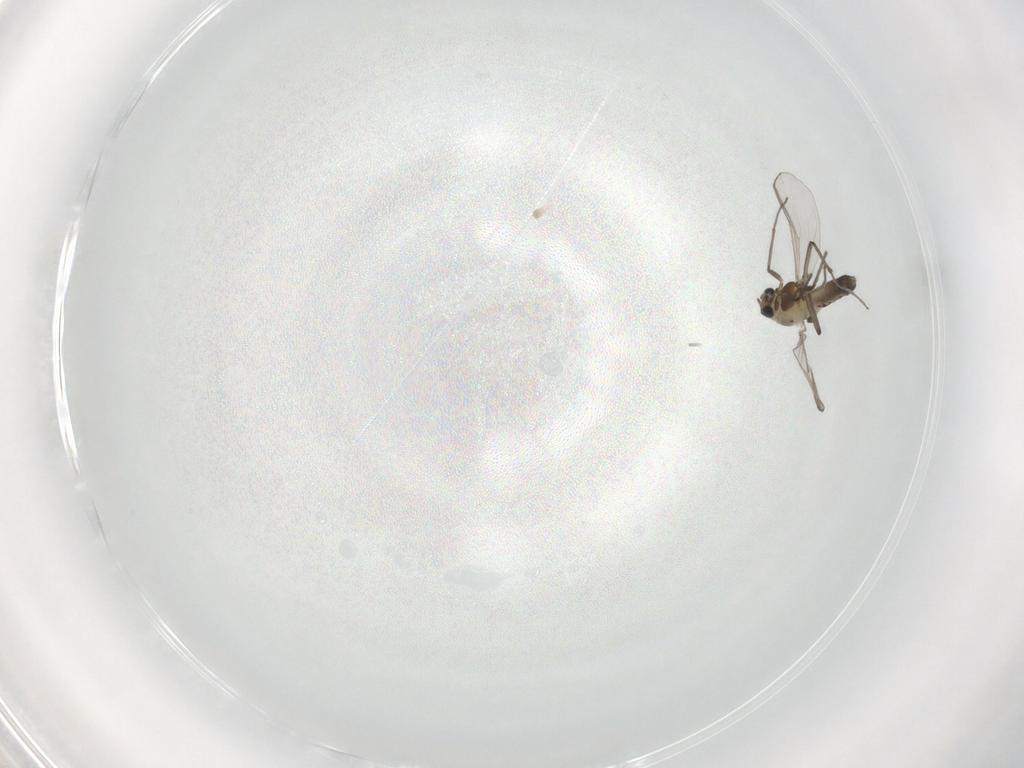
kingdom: Animalia
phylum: Arthropoda
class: Insecta
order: Diptera
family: Chironomidae
